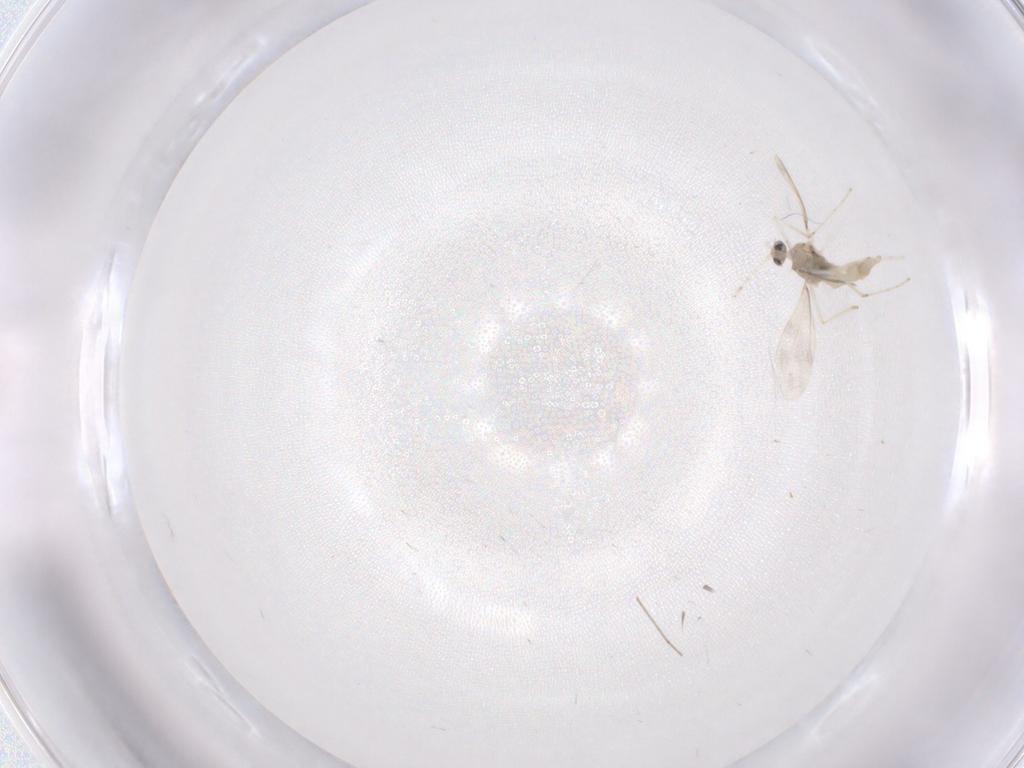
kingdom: Animalia
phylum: Arthropoda
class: Insecta
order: Diptera
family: Cecidomyiidae
